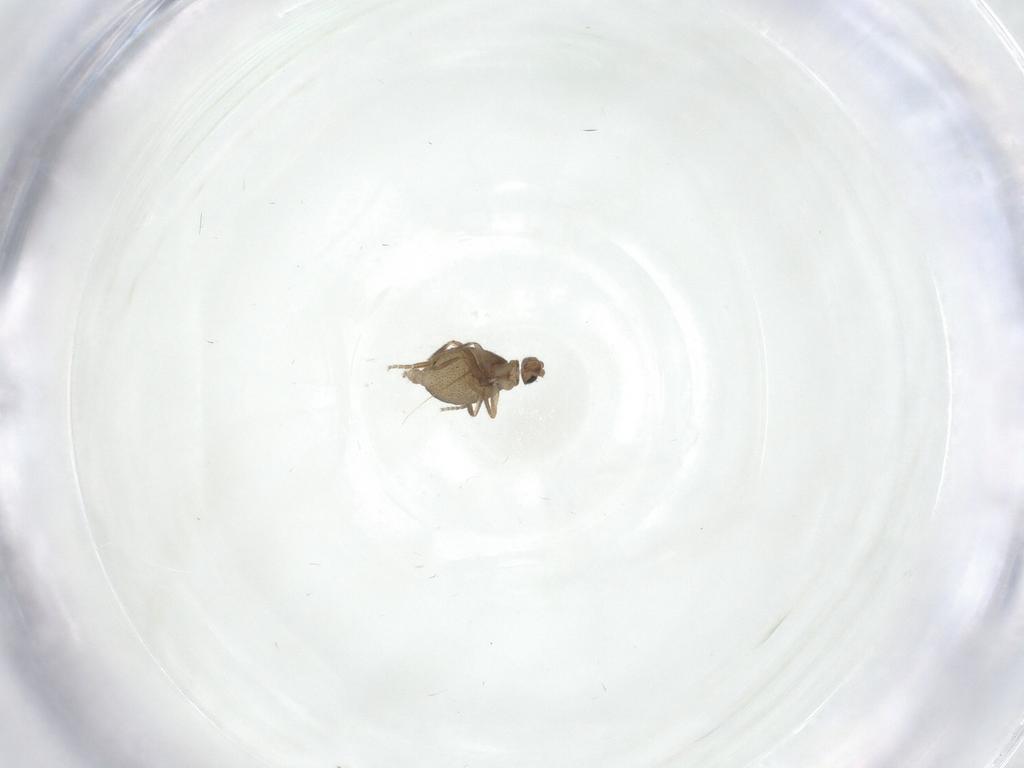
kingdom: Animalia
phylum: Arthropoda
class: Insecta
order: Diptera
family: Phoridae
